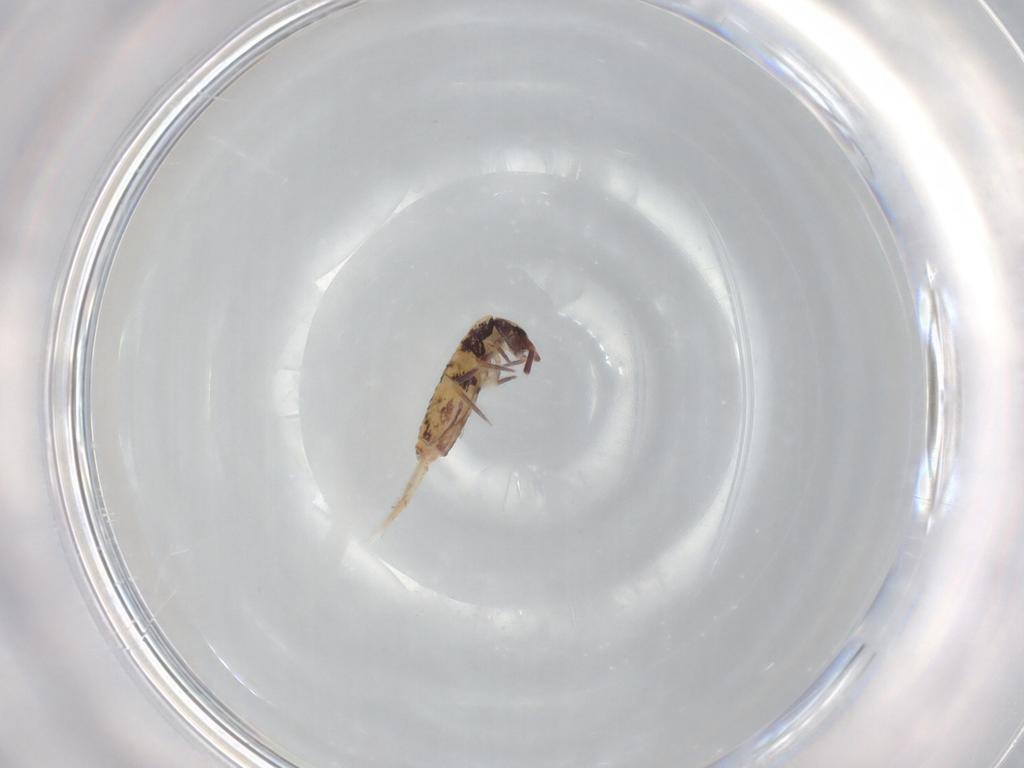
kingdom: Animalia
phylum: Arthropoda
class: Collembola
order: Entomobryomorpha
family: Entomobryidae
